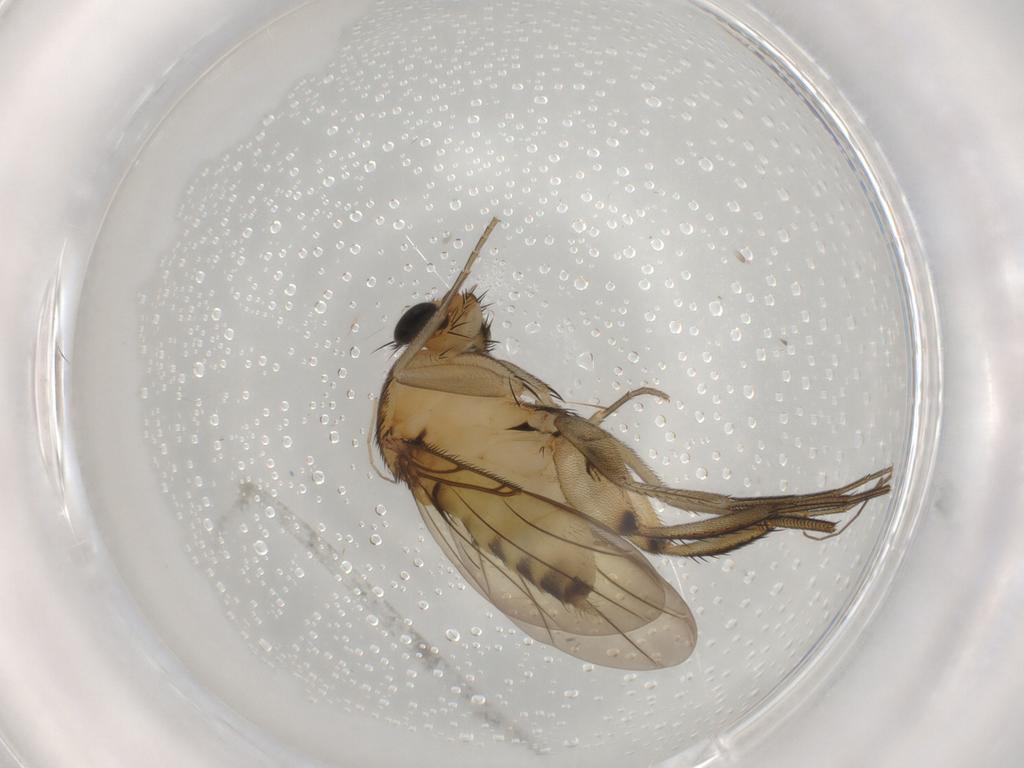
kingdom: Animalia
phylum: Arthropoda
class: Insecta
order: Diptera
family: Phoridae
